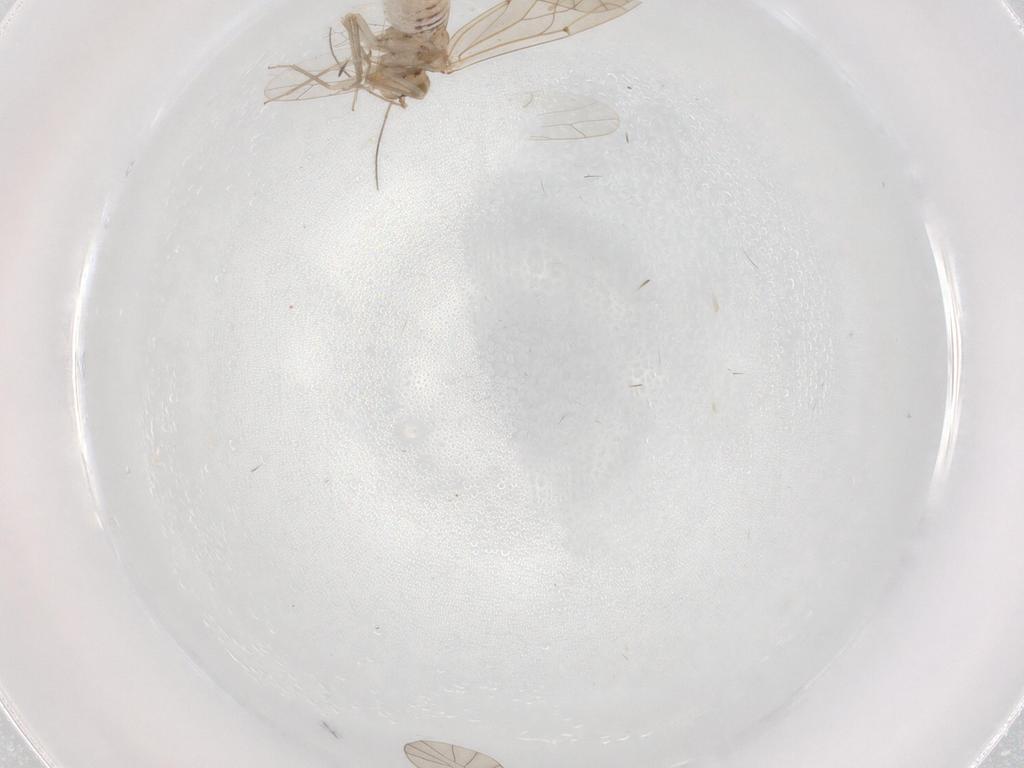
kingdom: Animalia
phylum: Arthropoda
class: Insecta
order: Psocodea
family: Lachesillidae
